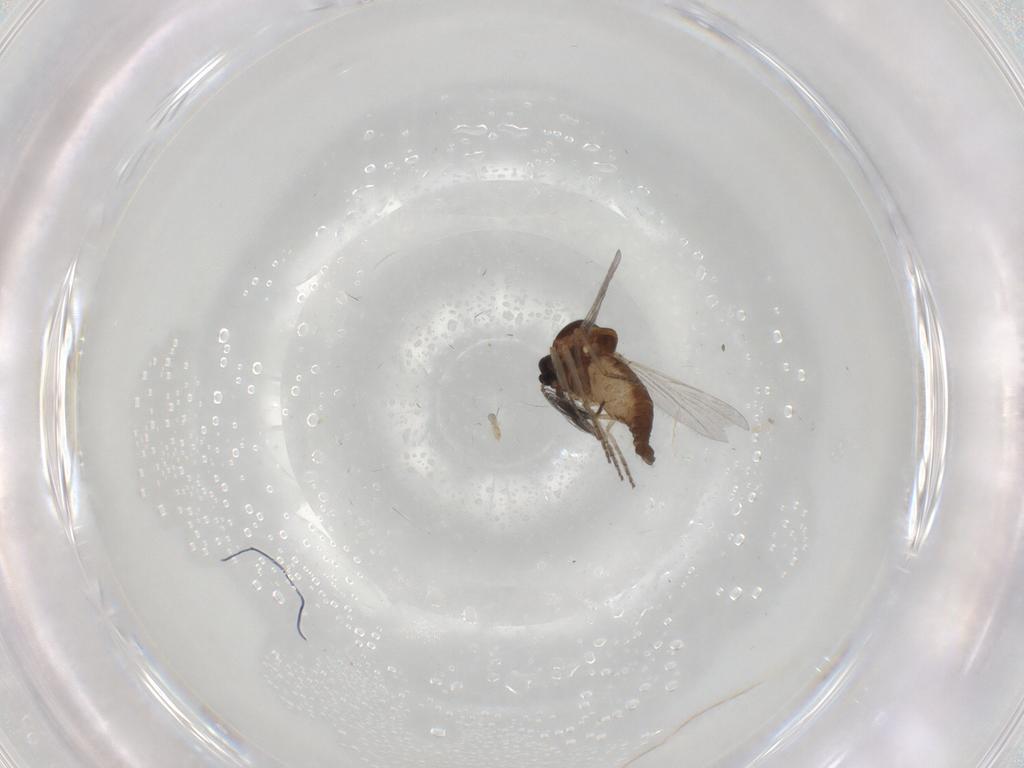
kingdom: Animalia
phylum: Arthropoda
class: Insecta
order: Diptera
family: Ceratopogonidae
